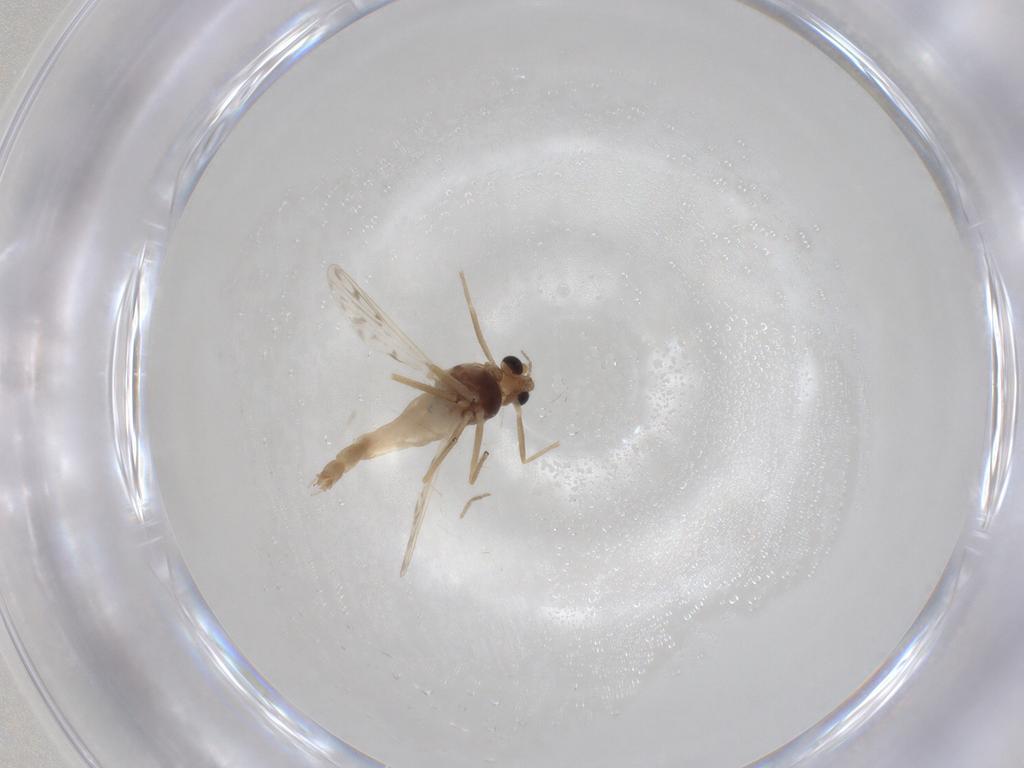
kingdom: Animalia
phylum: Arthropoda
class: Insecta
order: Diptera
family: Chironomidae
